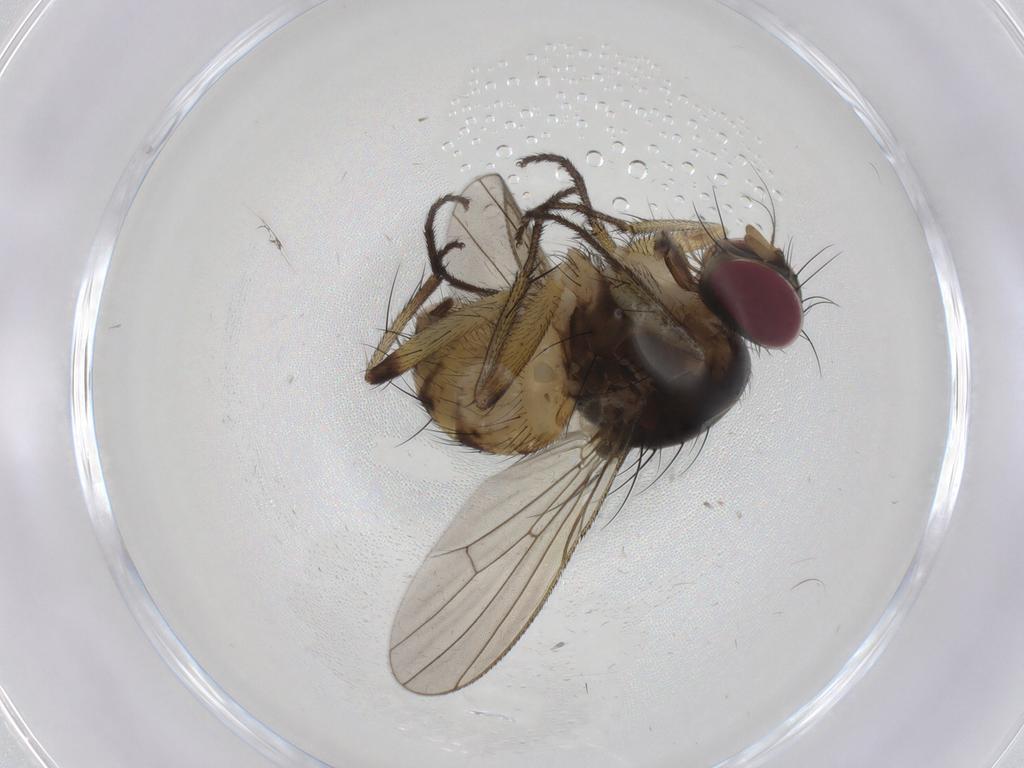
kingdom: Animalia
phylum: Arthropoda
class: Insecta
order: Diptera
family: Muscidae
